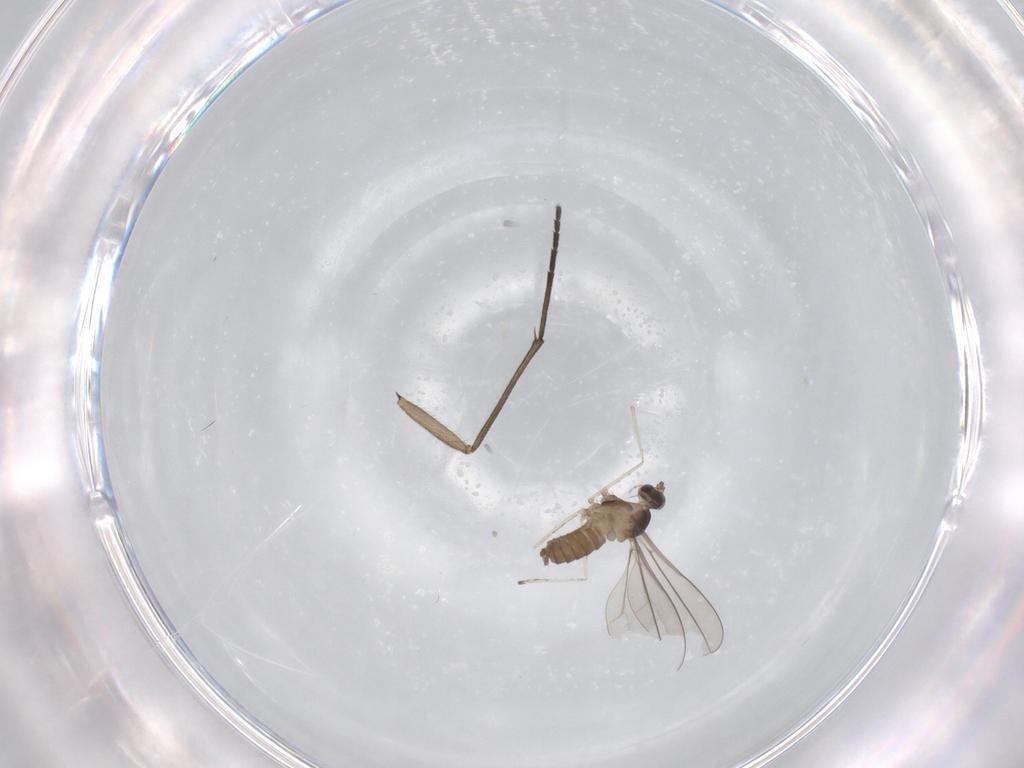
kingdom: Animalia
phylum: Arthropoda
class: Insecta
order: Diptera
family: Cecidomyiidae
